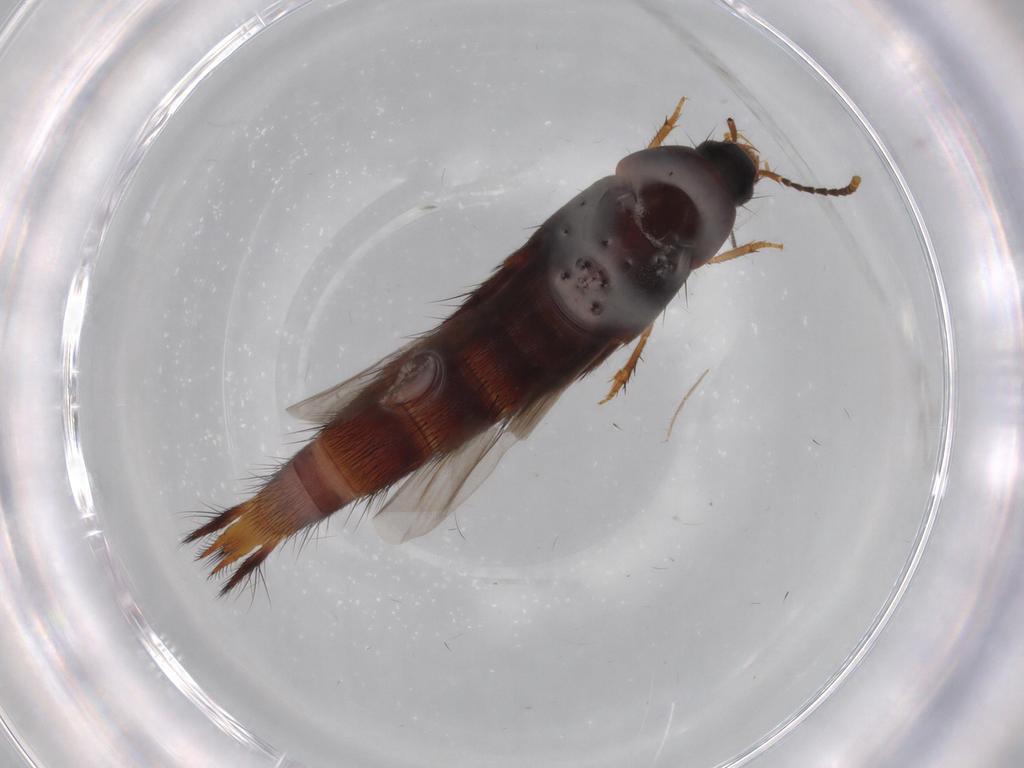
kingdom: Animalia
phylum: Arthropoda
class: Insecta
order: Coleoptera
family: Staphylinidae
